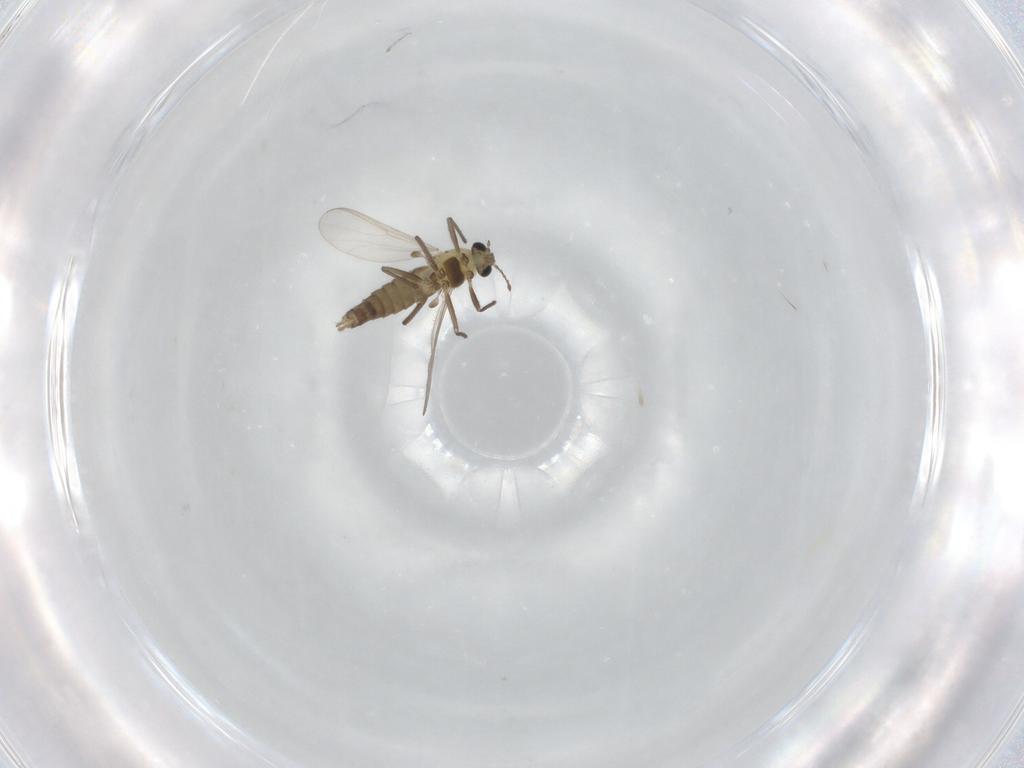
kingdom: Animalia
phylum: Arthropoda
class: Insecta
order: Diptera
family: Chironomidae
